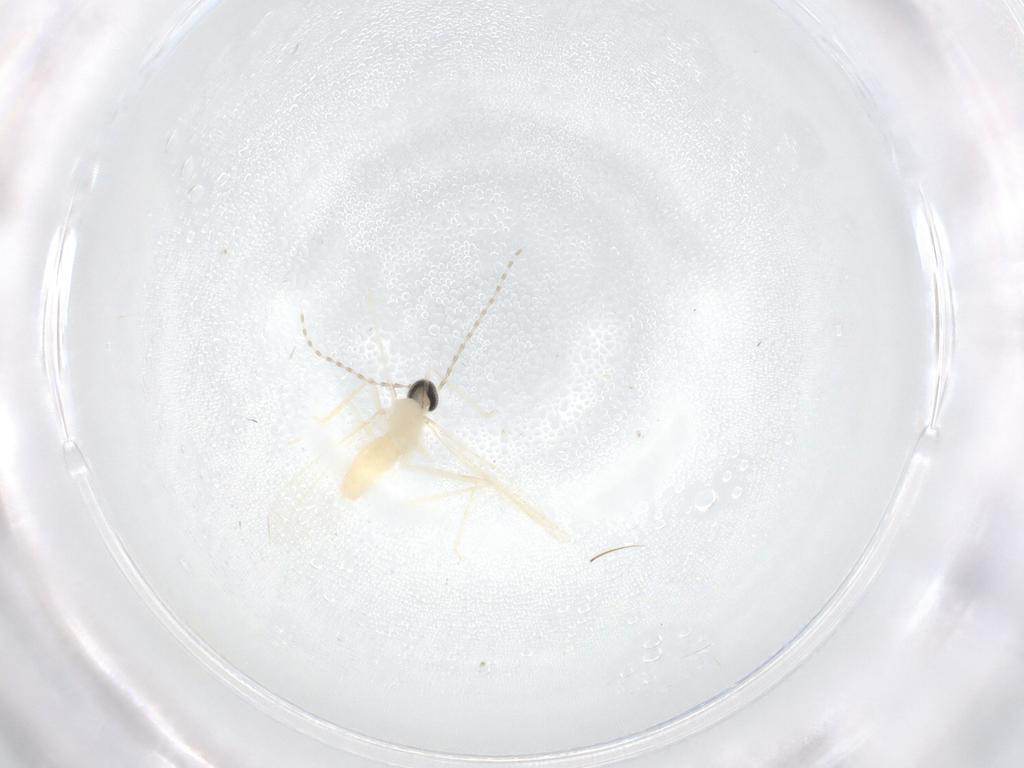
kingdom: Animalia
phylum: Arthropoda
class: Insecta
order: Diptera
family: Cecidomyiidae
